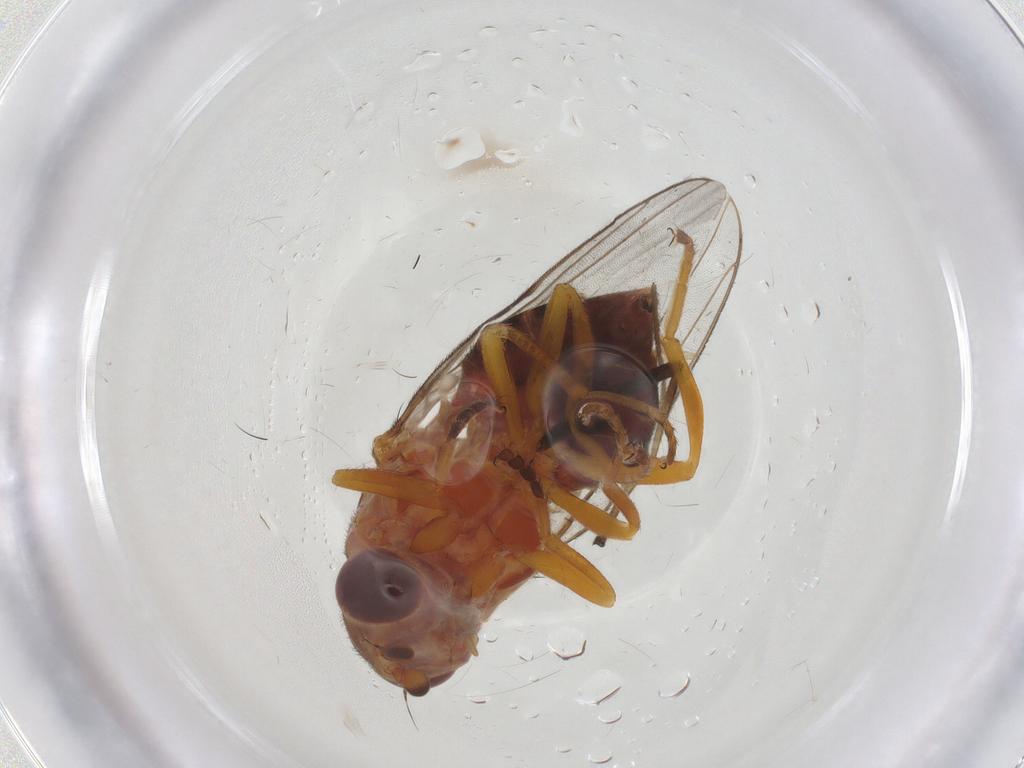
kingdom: Animalia
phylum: Arthropoda
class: Insecta
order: Diptera
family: Chloropidae
